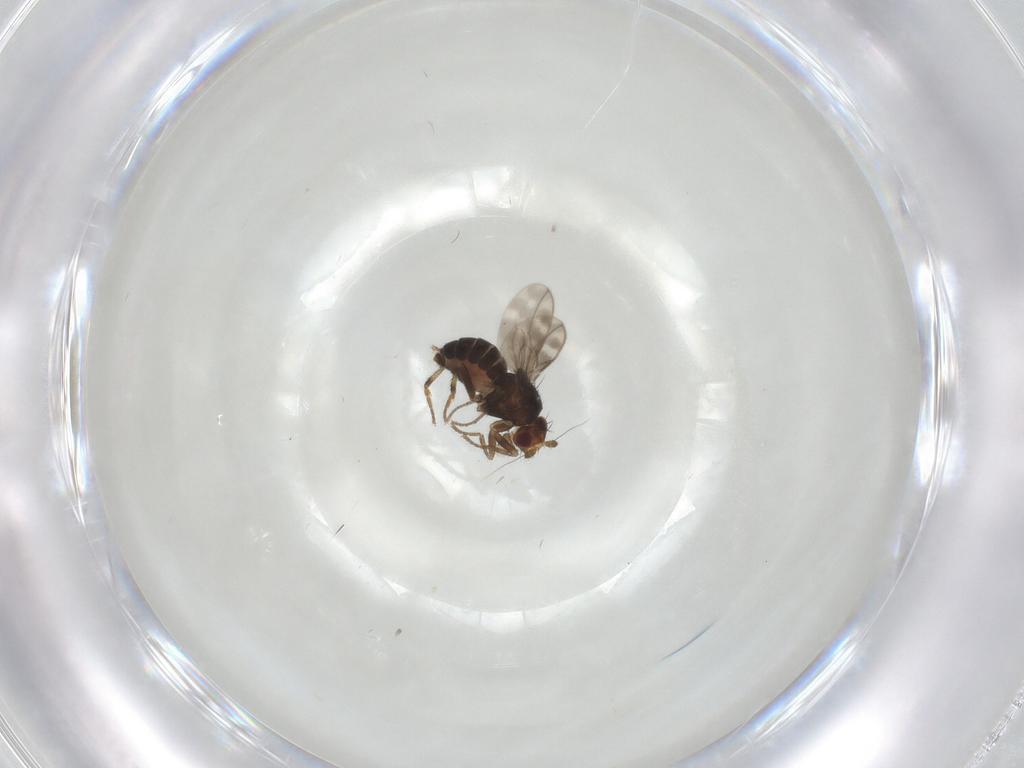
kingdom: Animalia
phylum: Arthropoda
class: Insecta
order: Diptera
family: Sphaeroceridae
